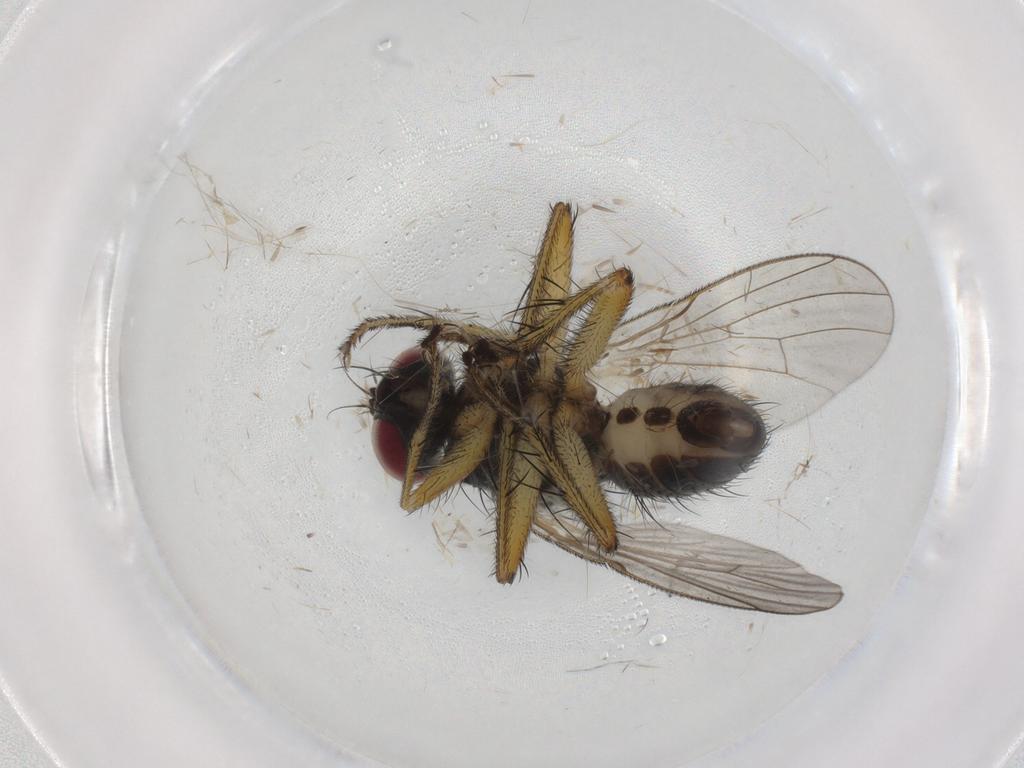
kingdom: Animalia
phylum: Arthropoda
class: Insecta
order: Diptera
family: Muscidae
